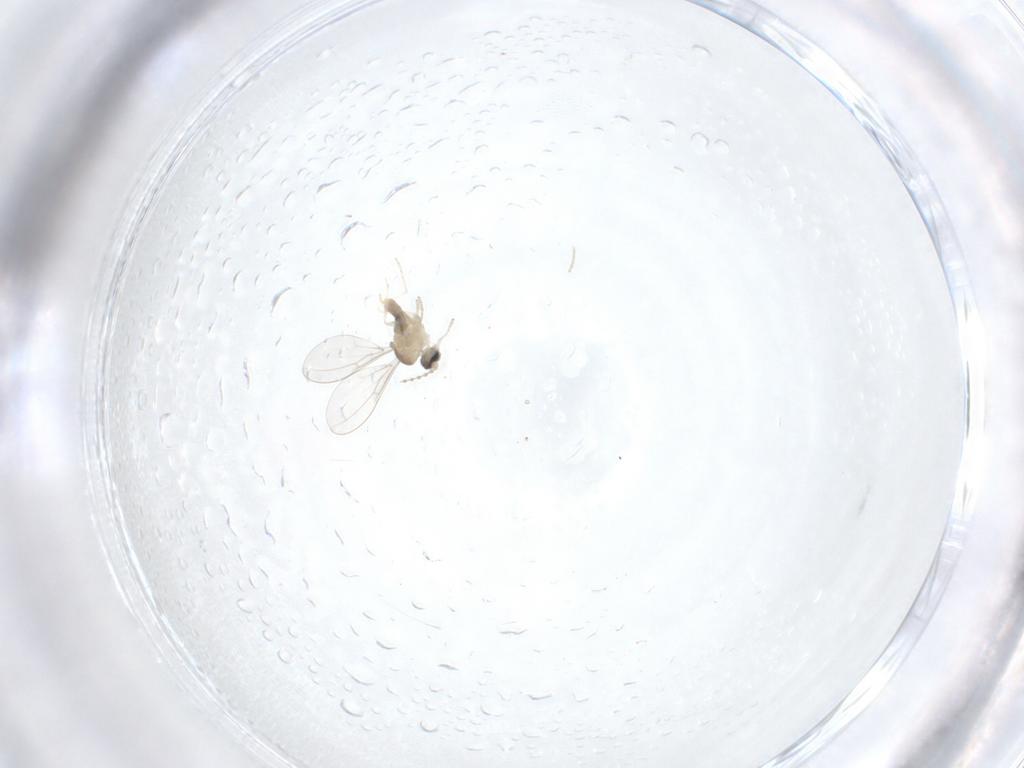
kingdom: Animalia
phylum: Arthropoda
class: Insecta
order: Diptera
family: Cecidomyiidae
